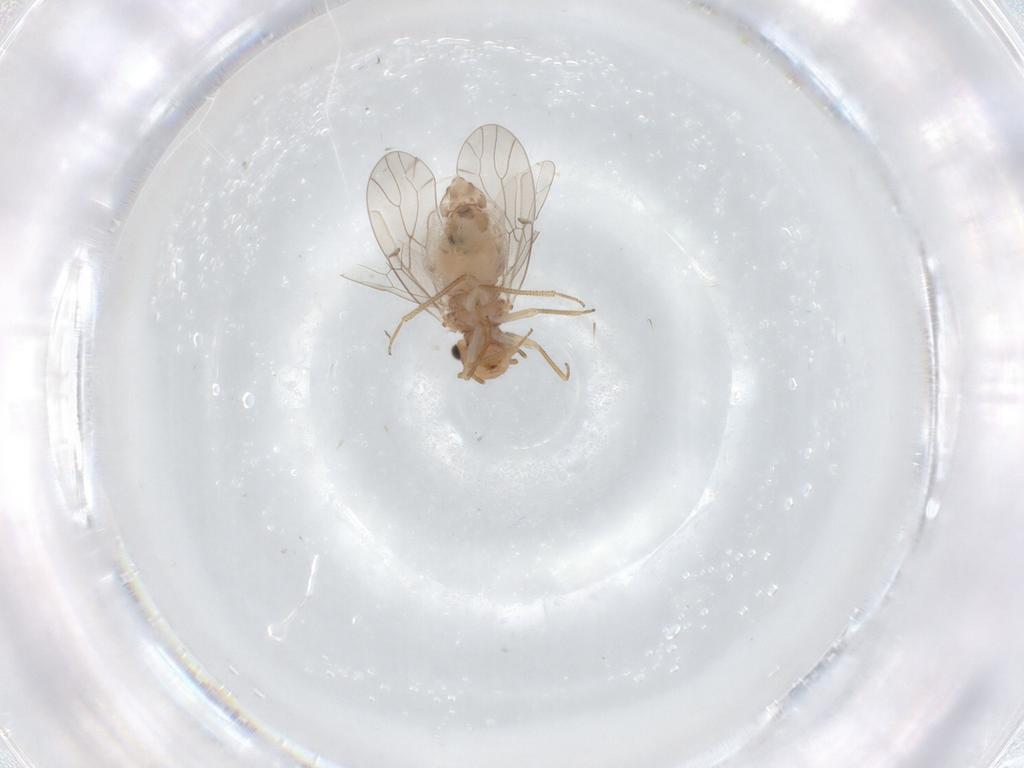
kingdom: Animalia
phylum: Arthropoda
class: Insecta
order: Psocodea
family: Ectopsocidae
